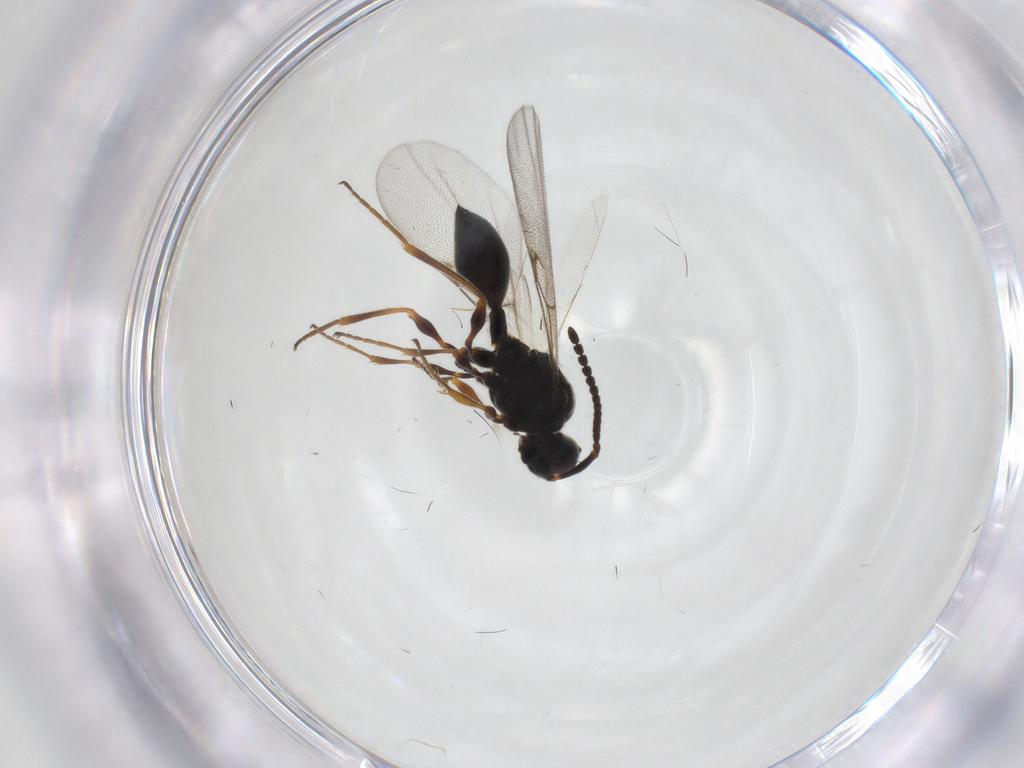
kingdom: Animalia
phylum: Arthropoda
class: Insecta
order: Hymenoptera
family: Diapriidae
